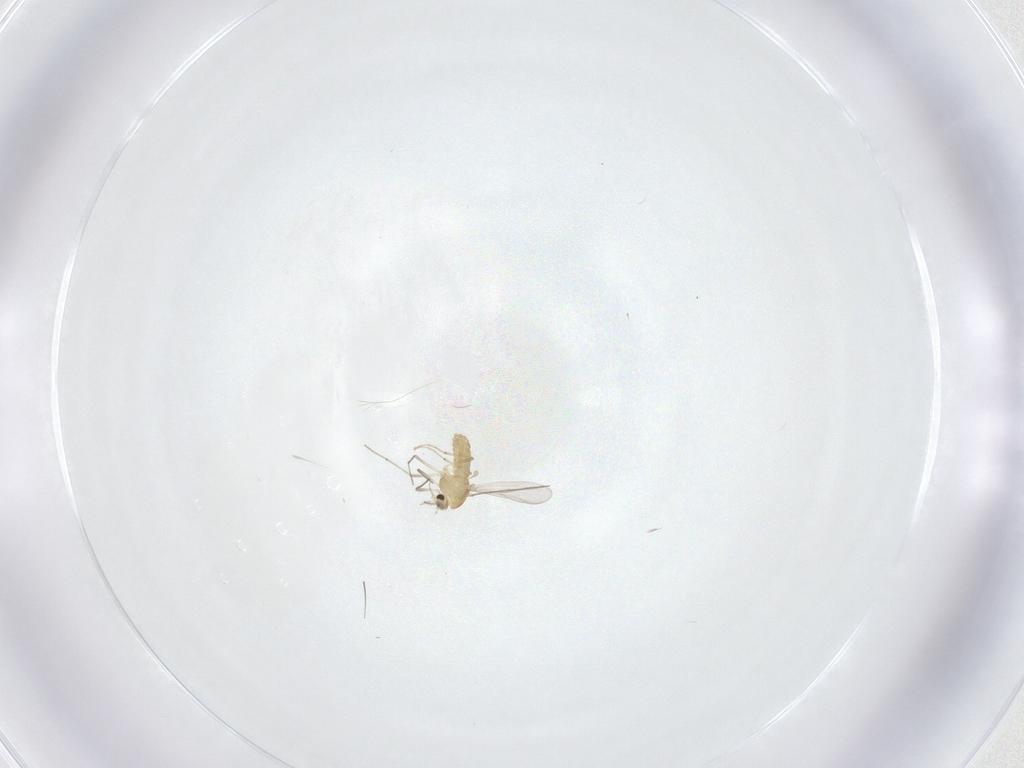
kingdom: Animalia
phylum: Arthropoda
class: Insecta
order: Diptera
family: Chironomidae
